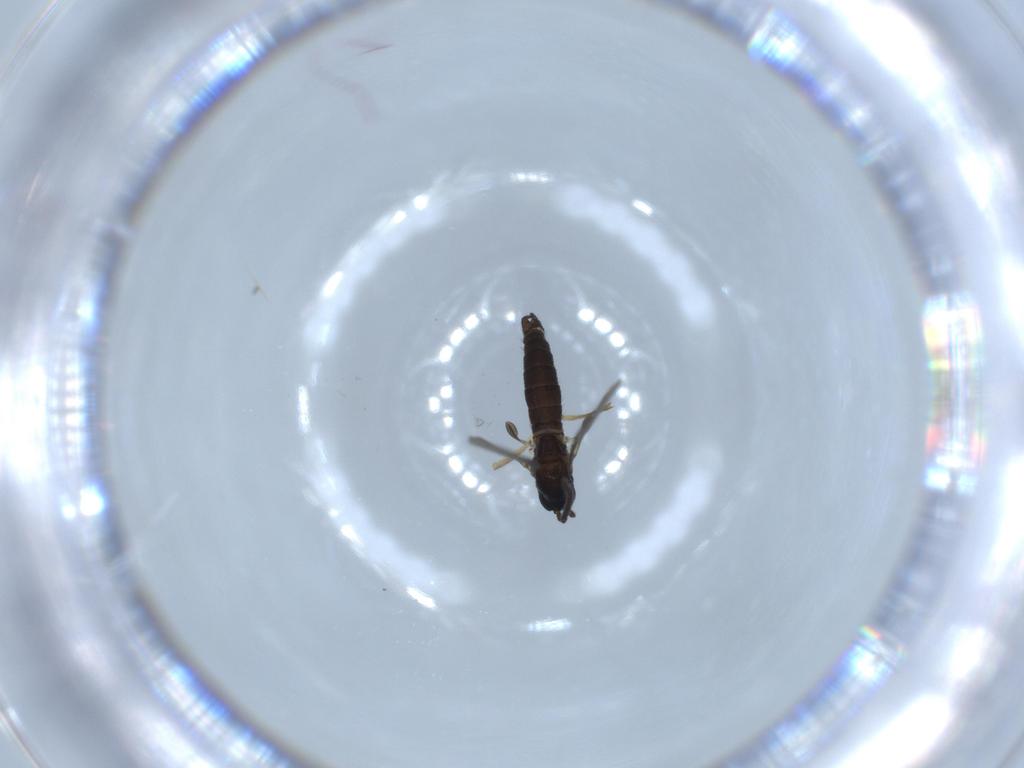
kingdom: Animalia
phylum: Arthropoda
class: Insecta
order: Diptera
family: Sciaridae
